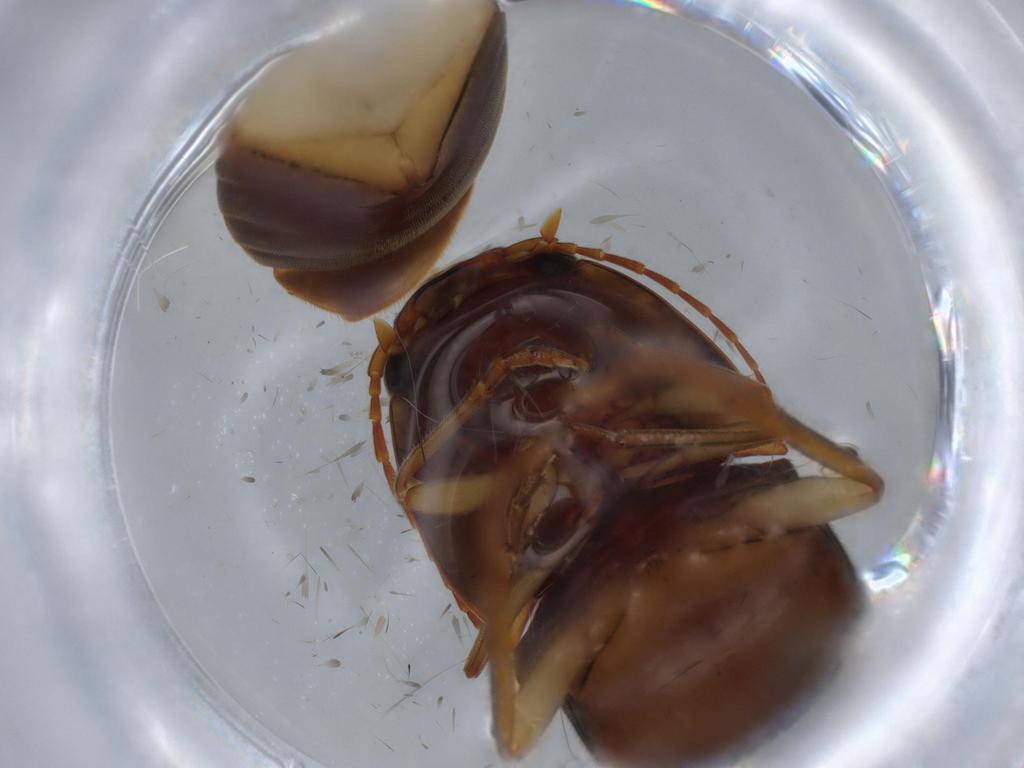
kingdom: Animalia
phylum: Arthropoda
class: Insecta
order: Coleoptera
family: Elateridae
